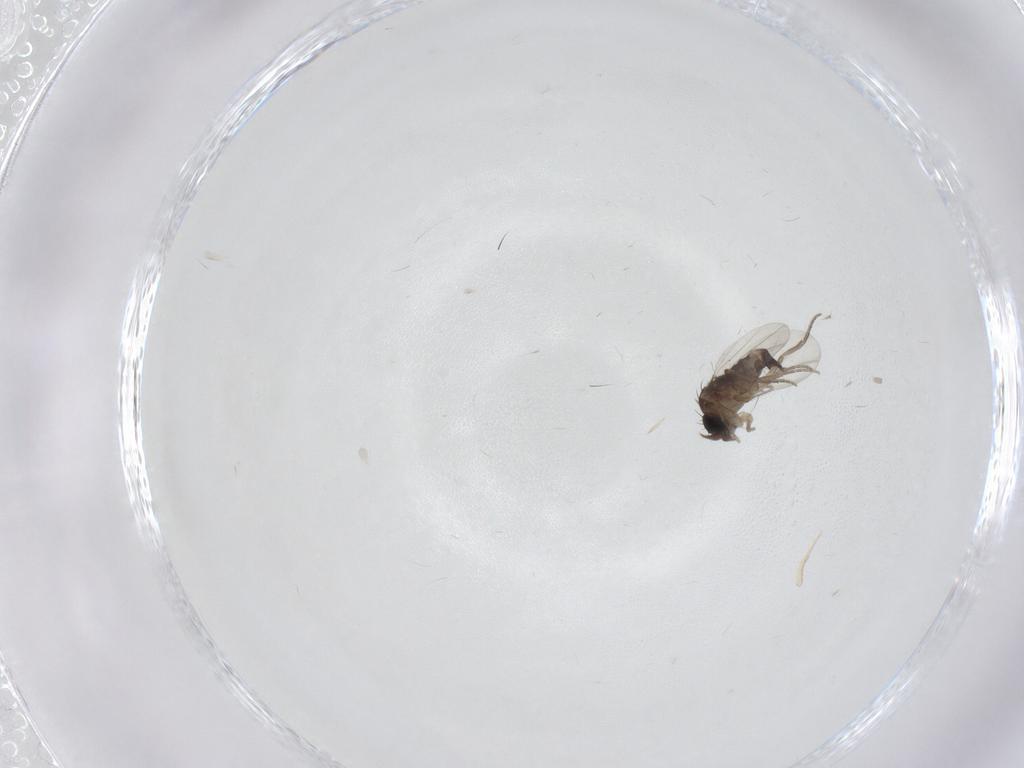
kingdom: Animalia
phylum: Arthropoda
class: Insecta
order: Diptera
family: Phoridae
